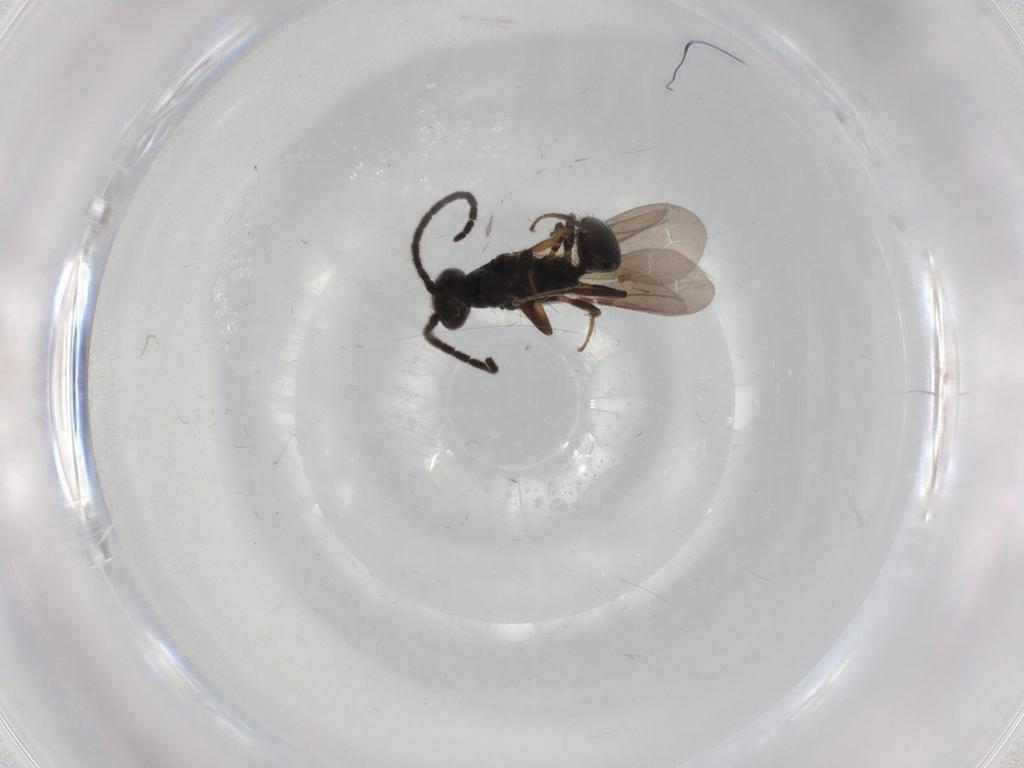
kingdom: Animalia
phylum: Arthropoda
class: Insecta
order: Hymenoptera
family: Bethylidae
